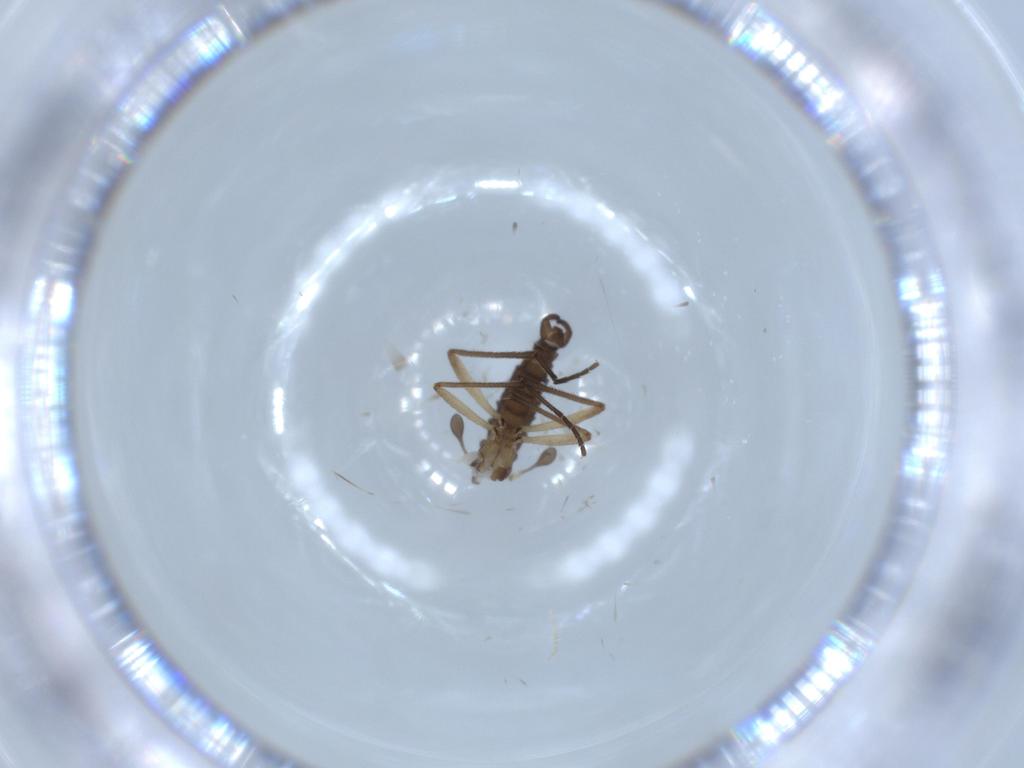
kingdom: Animalia
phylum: Arthropoda
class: Insecta
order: Diptera
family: Sciaridae
